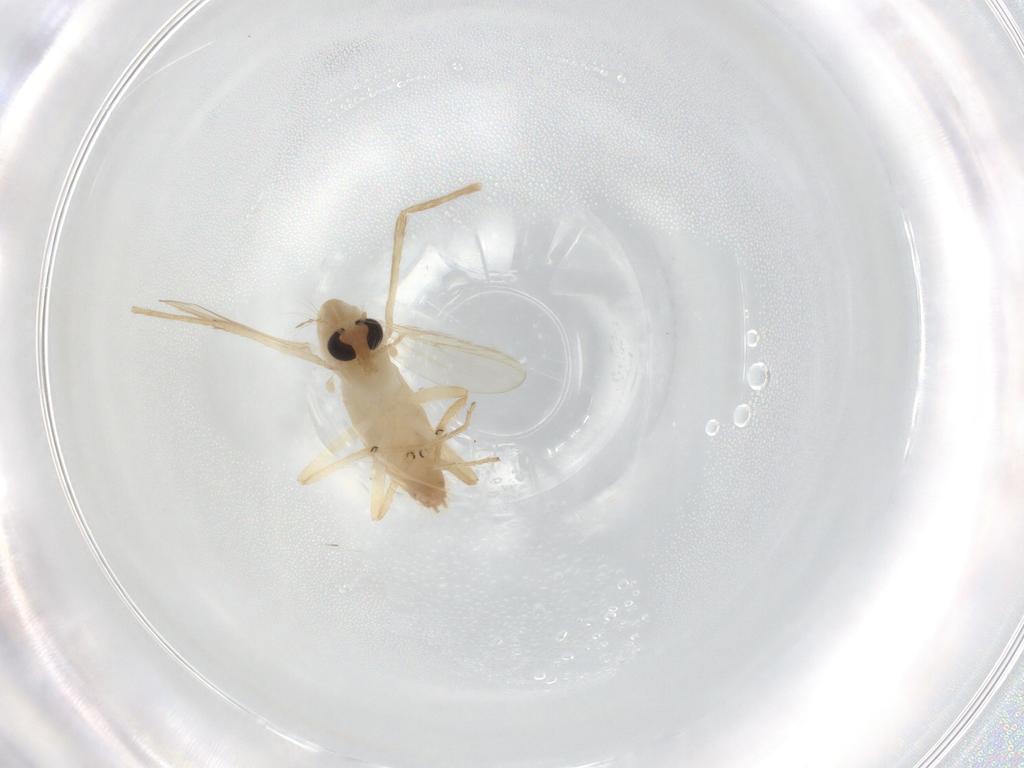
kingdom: Animalia
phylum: Arthropoda
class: Insecta
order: Diptera
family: Chironomidae
